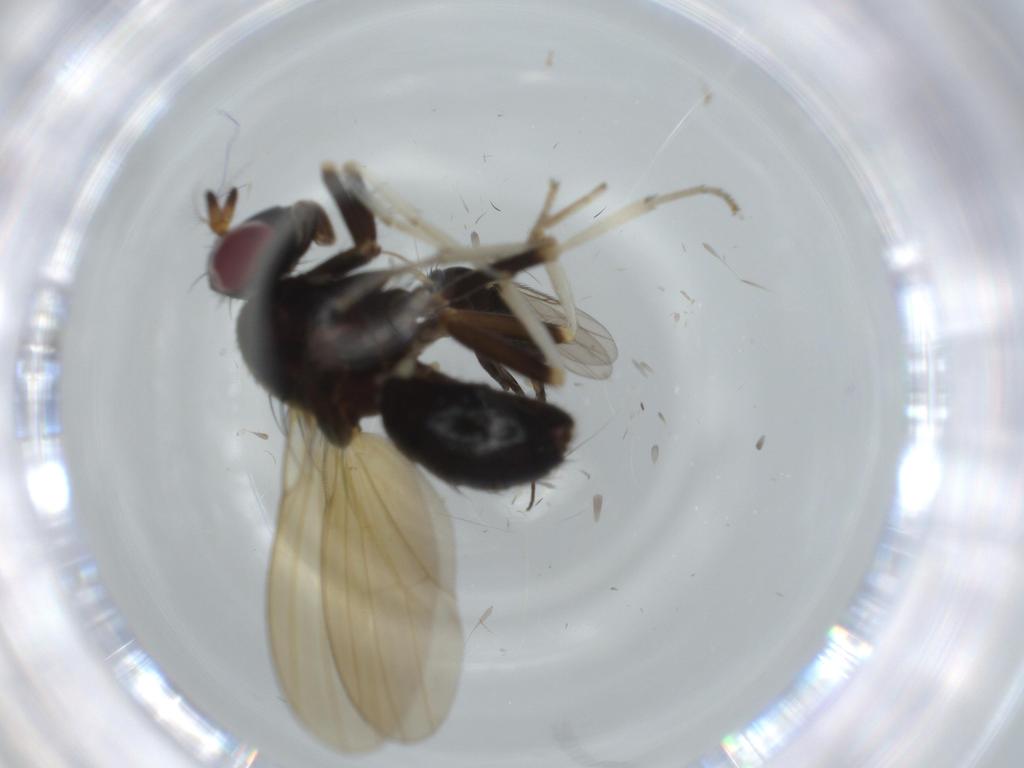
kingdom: Animalia
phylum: Arthropoda
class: Insecta
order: Diptera
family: Phoridae
